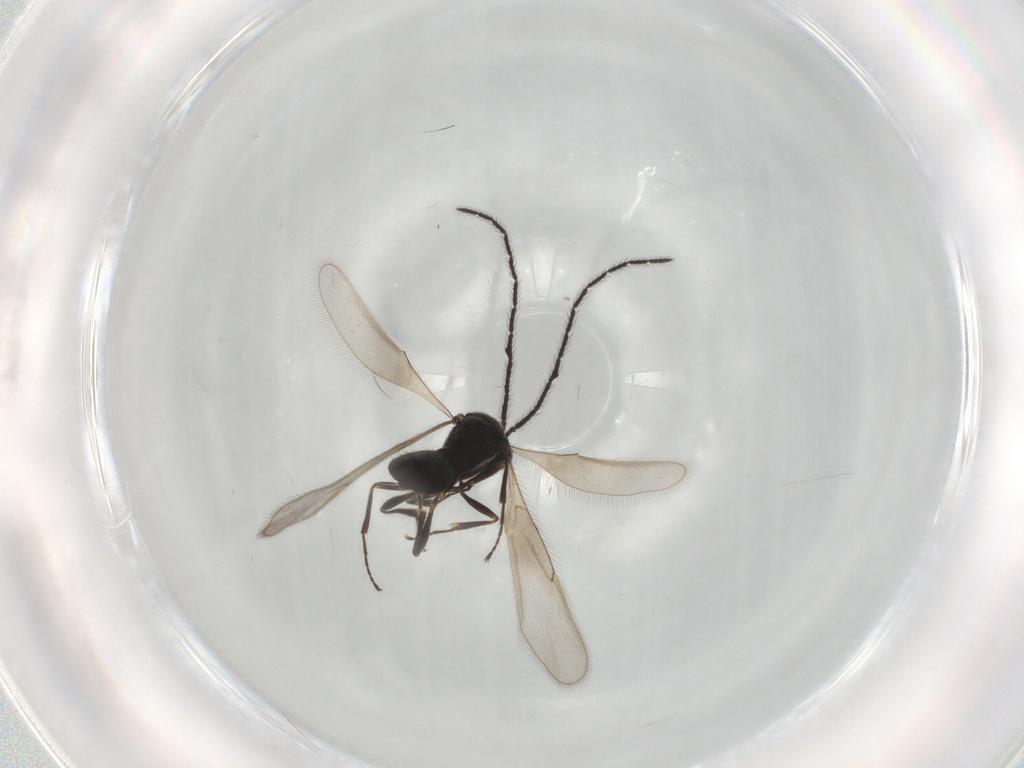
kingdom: Animalia
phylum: Arthropoda
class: Insecta
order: Hymenoptera
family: Scelionidae
